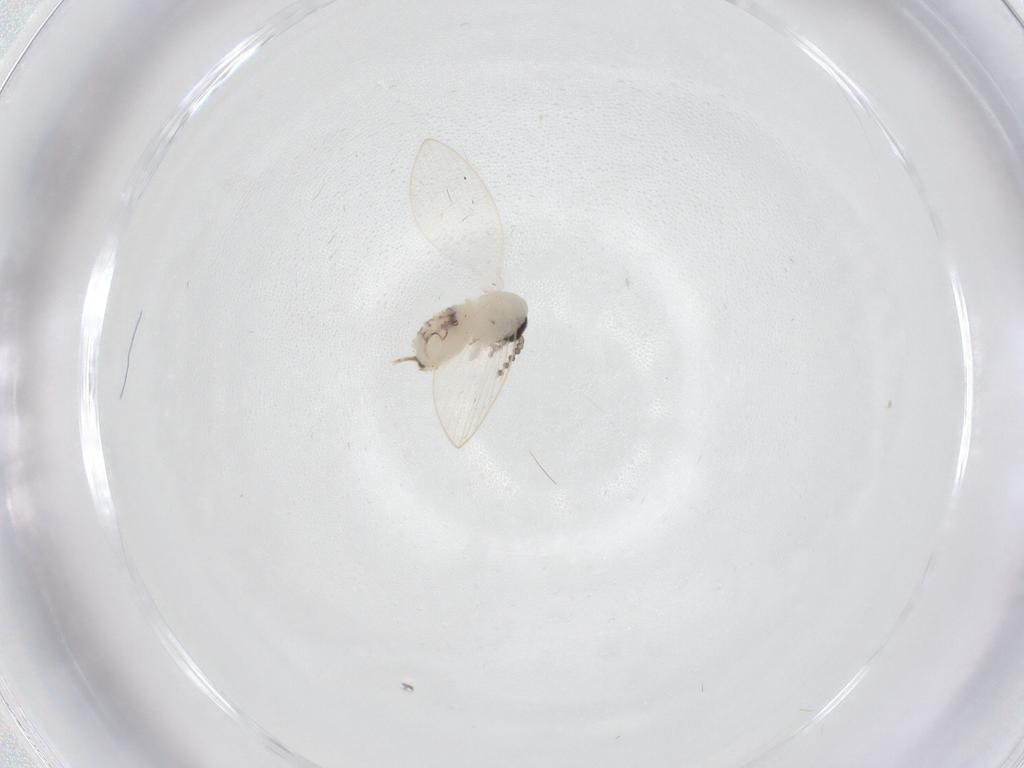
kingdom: Animalia
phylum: Arthropoda
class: Insecta
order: Diptera
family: Psychodidae
